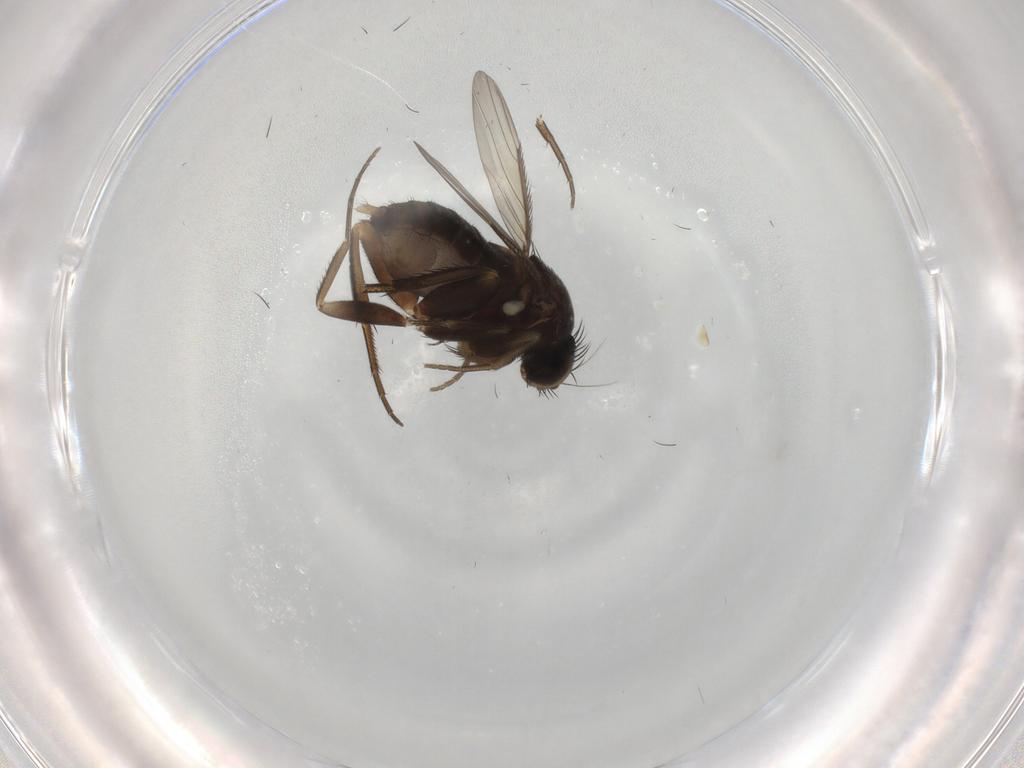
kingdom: Animalia
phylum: Arthropoda
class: Insecta
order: Diptera
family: Phoridae
